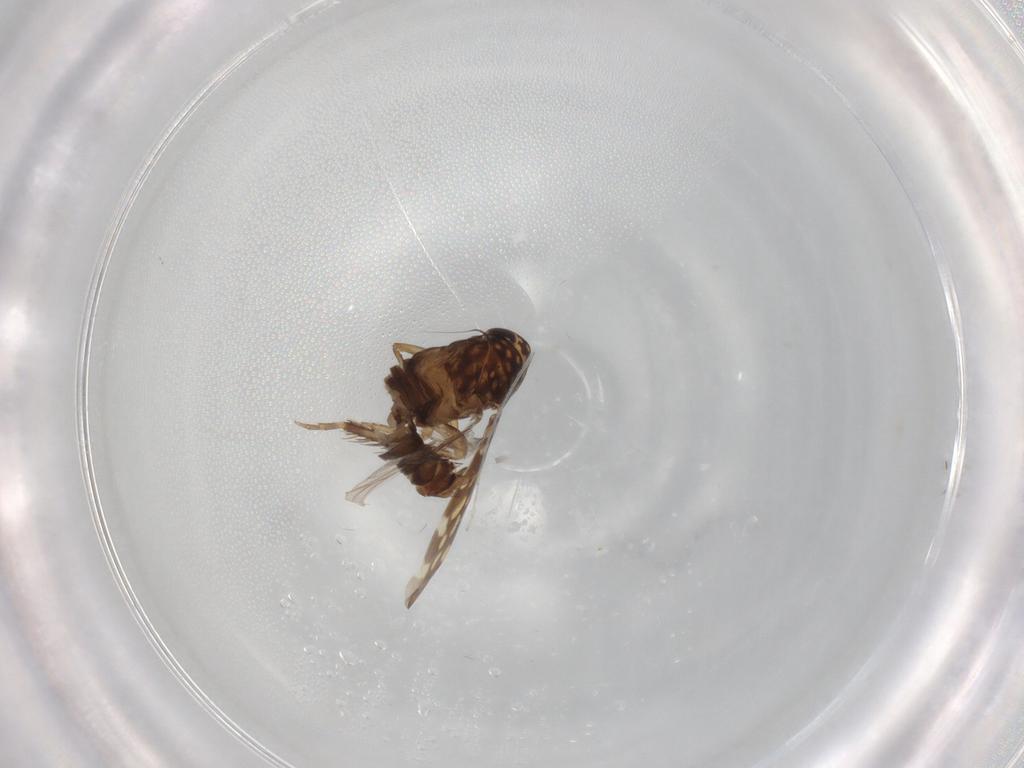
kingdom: Animalia
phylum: Arthropoda
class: Insecta
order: Hemiptera
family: Cicadellidae
